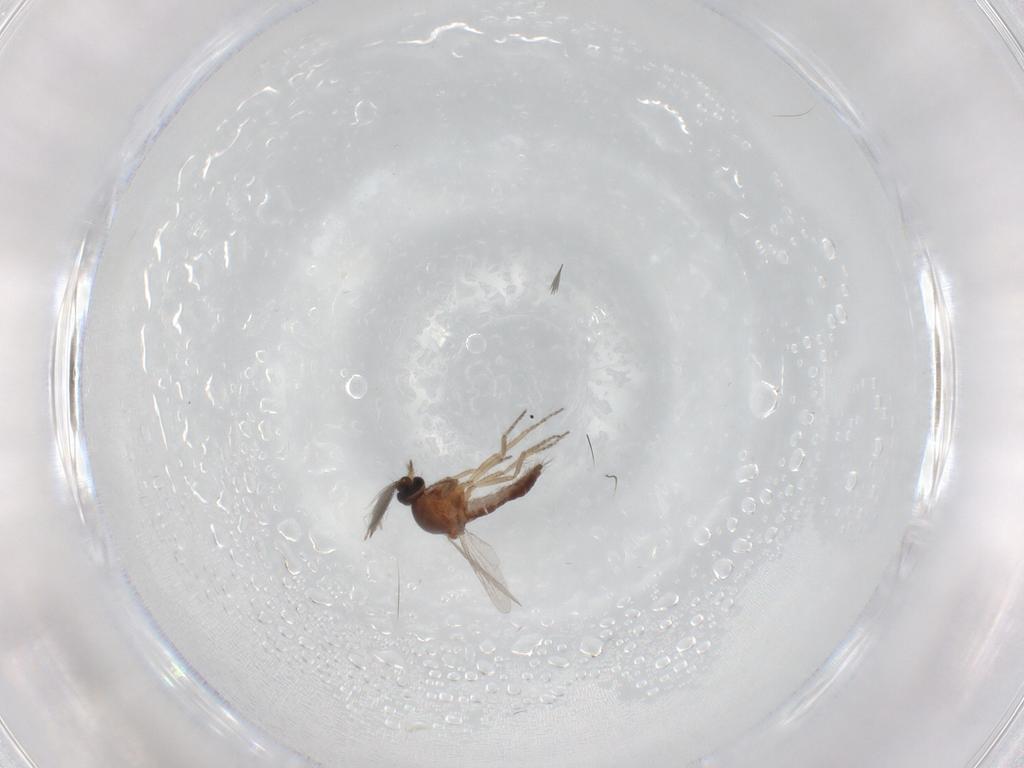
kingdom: Animalia
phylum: Arthropoda
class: Insecta
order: Diptera
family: Ceratopogonidae
